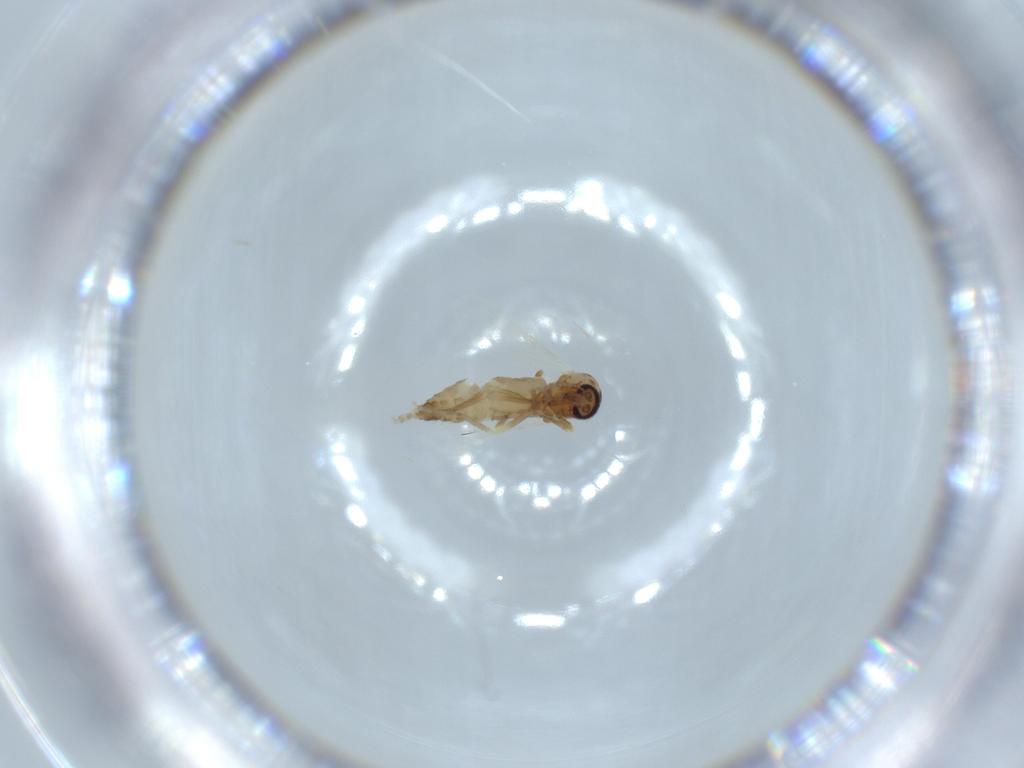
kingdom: Animalia
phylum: Arthropoda
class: Insecta
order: Diptera
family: Ceratopogonidae
